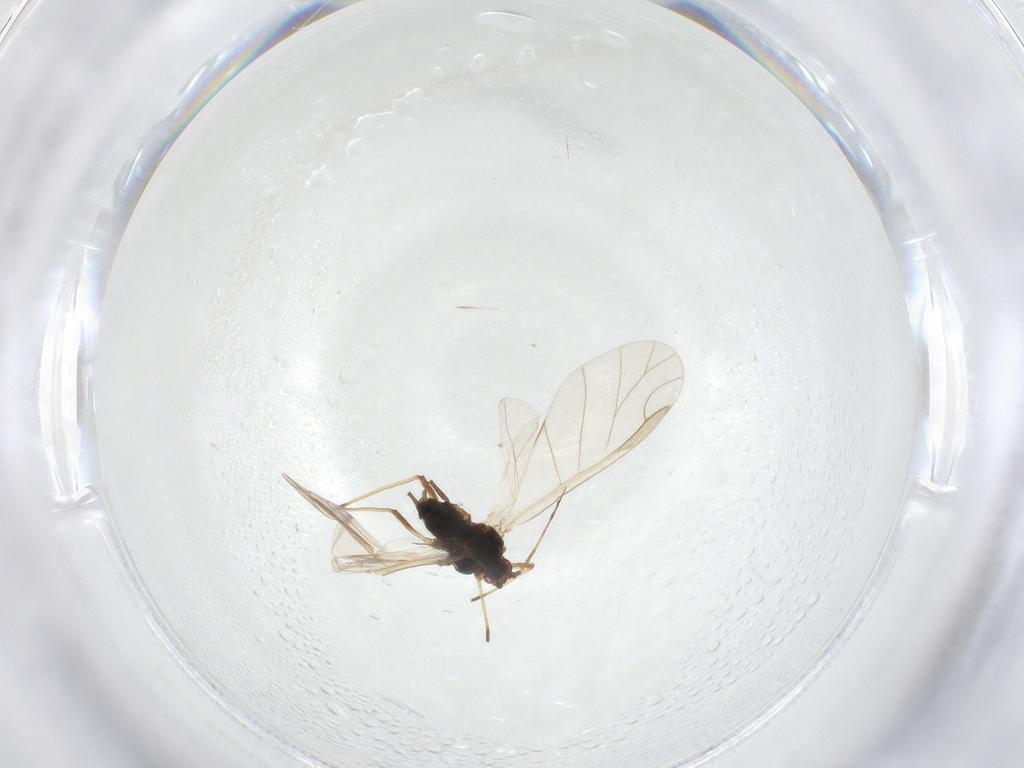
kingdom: Animalia
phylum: Arthropoda
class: Insecta
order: Hemiptera
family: Aphididae
